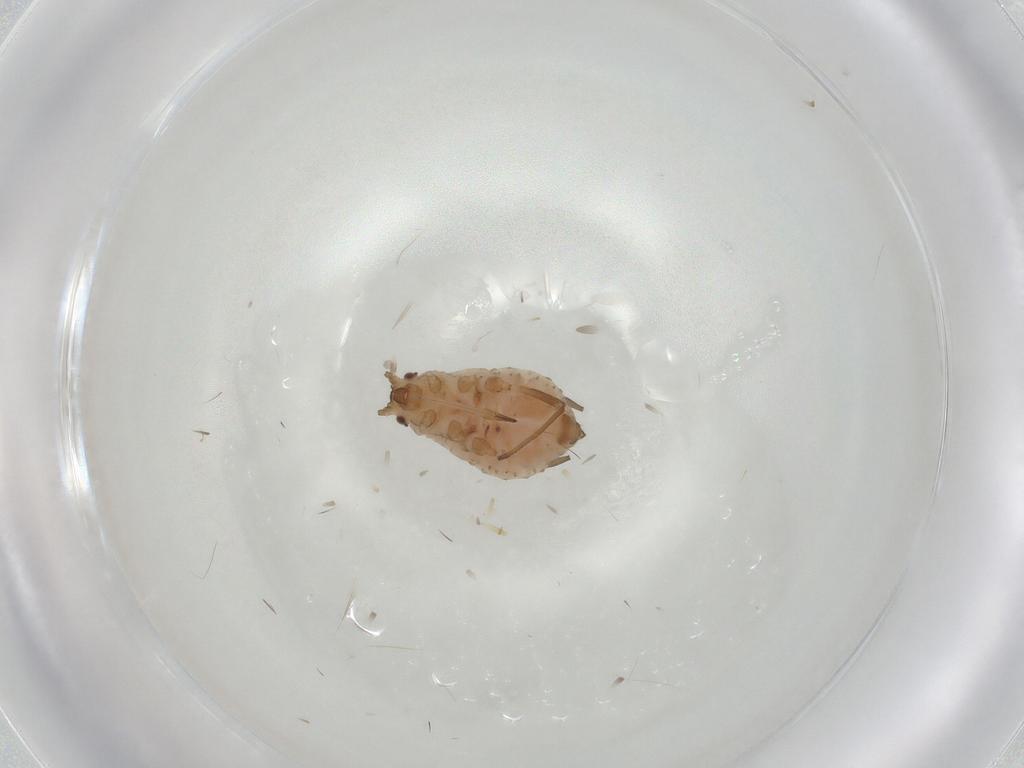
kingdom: Animalia
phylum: Arthropoda
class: Insecta
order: Hemiptera
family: Aphididae
